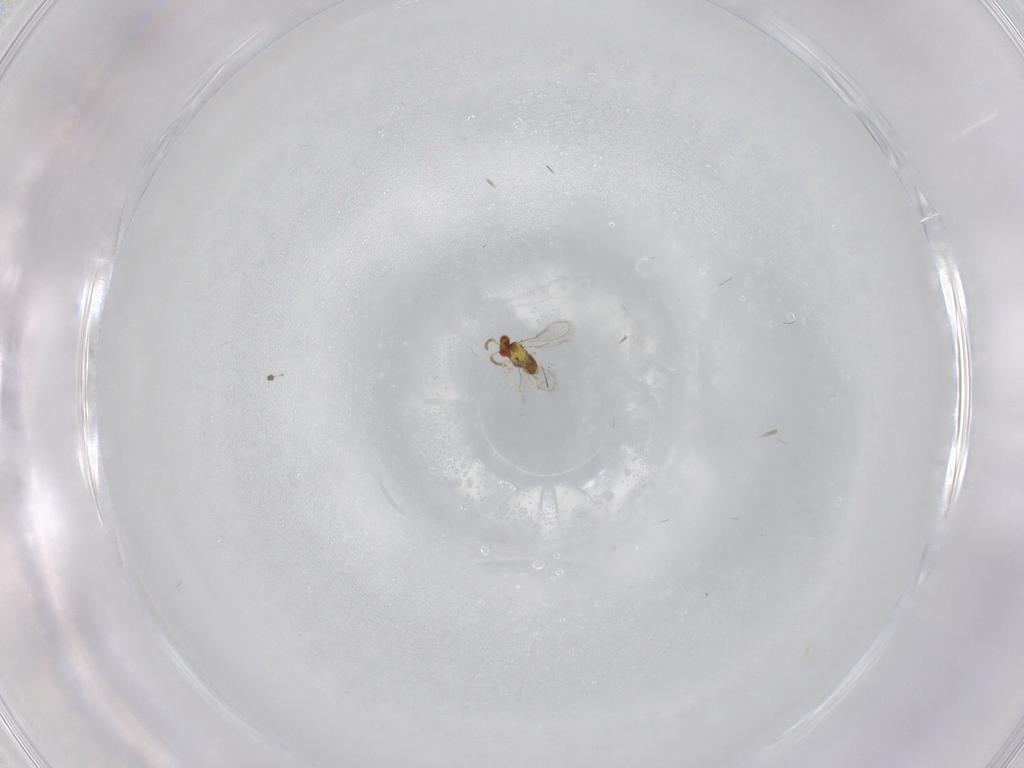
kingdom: Animalia
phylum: Arthropoda
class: Insecta
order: Hymenoptera
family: Aphelinidae
